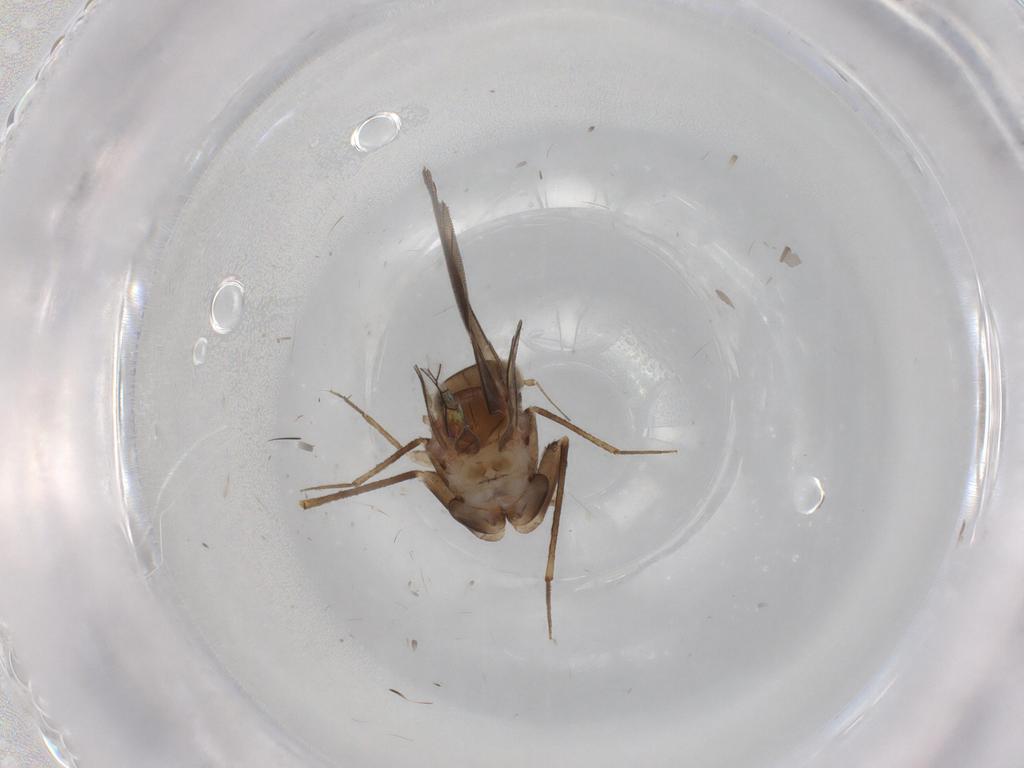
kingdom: Animalia
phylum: Arthropoda
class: Insecta
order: Psocodea
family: Lepidopsocidae
